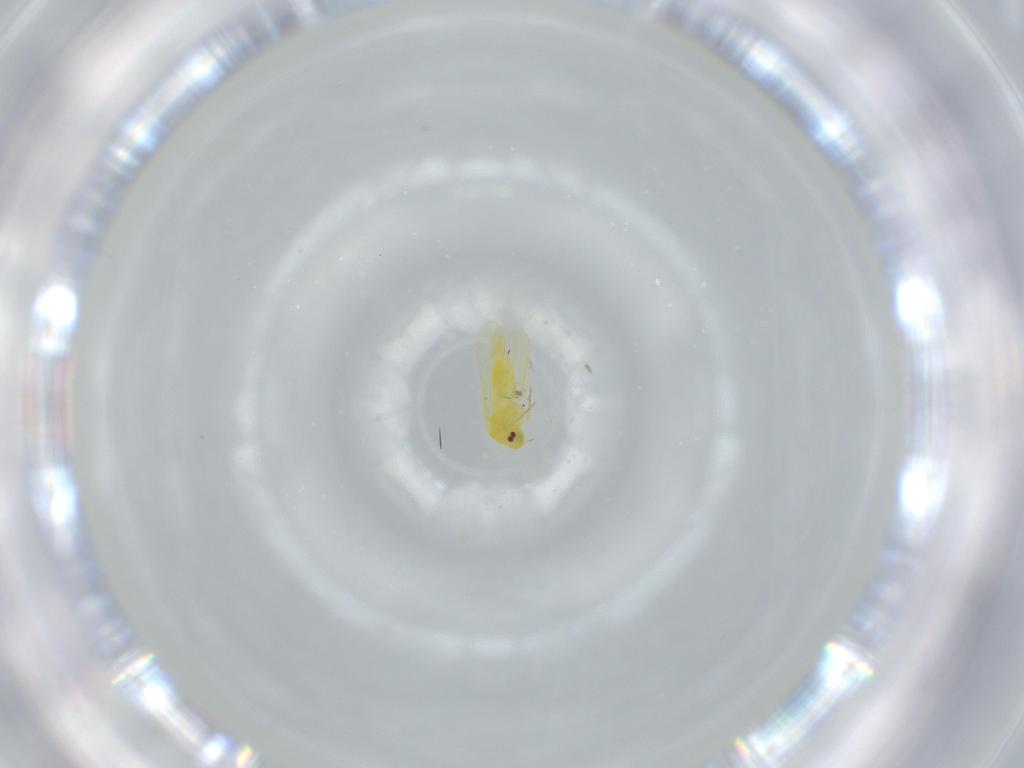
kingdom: Animalia
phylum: Arthropoda
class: Insecta
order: Hemiptera
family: Aleyrodidae
